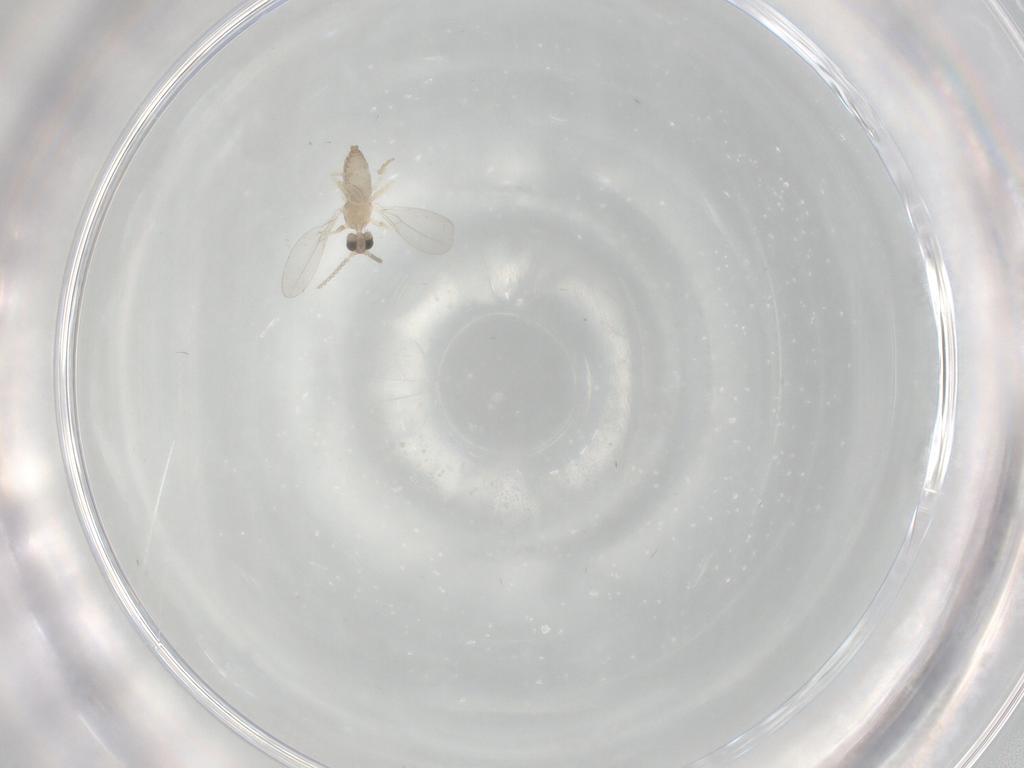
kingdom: Animalia
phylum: Arthropoda
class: Insecta
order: Diptera
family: Cecidomyiidae
